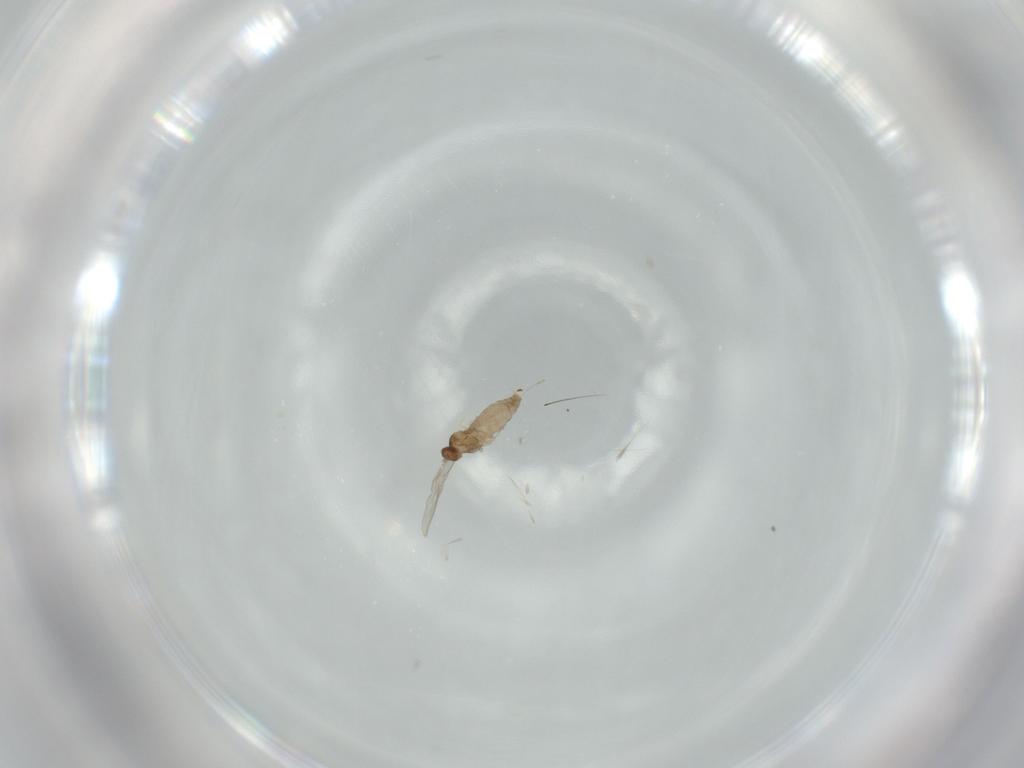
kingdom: Animalia
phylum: Arthropoda
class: Insecta
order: Diptera
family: Cecidomyiidae
